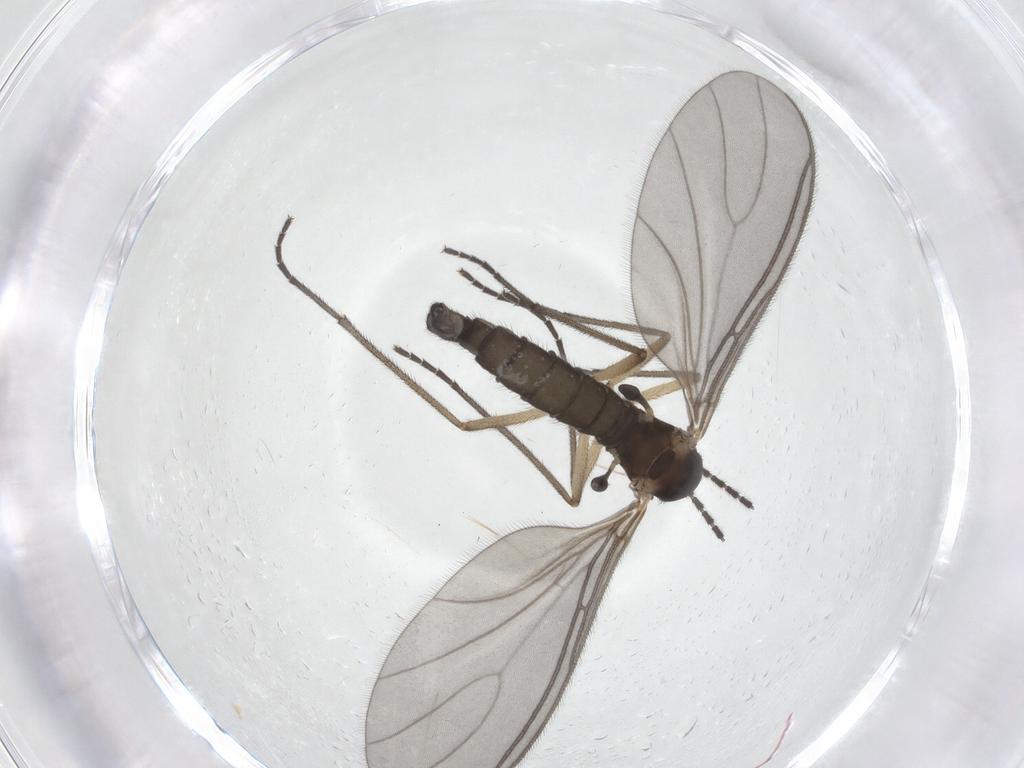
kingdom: Animalia
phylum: Arthropoda
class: Insecta
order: Diptera
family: Sciaridae
